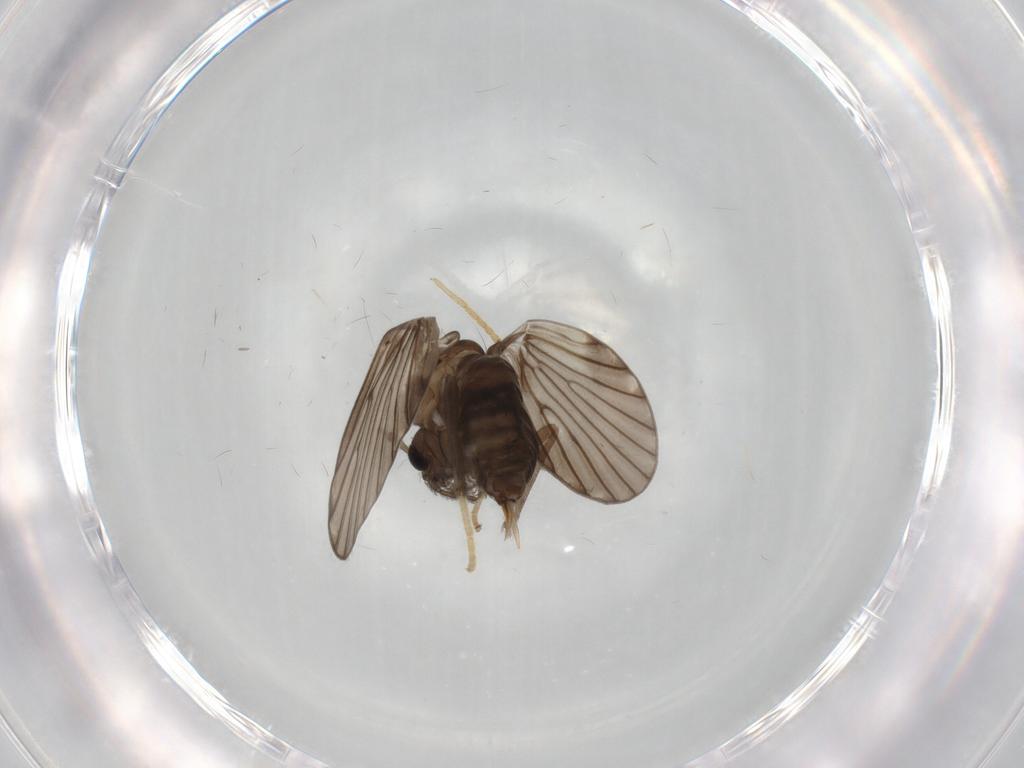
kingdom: Animalia
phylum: Arthropoda
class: Insecta
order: Diptera
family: Psychodidae
